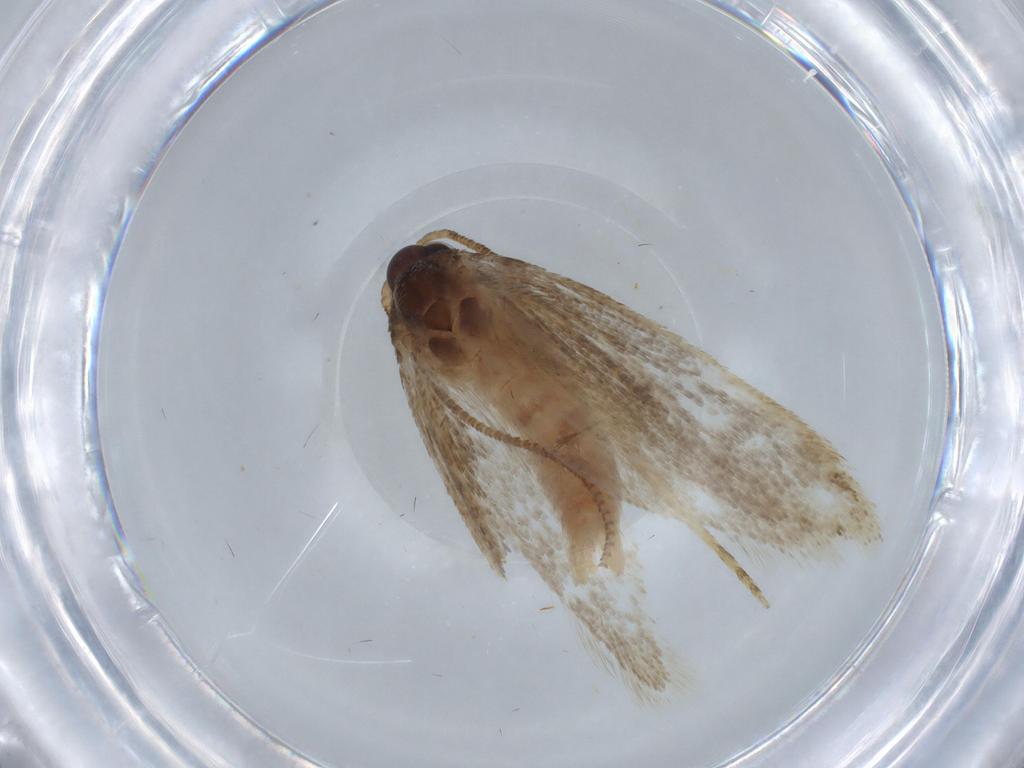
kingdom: Animalia
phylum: Arthropoda
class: Insecta
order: Lepidoptera
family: Autostichidae
